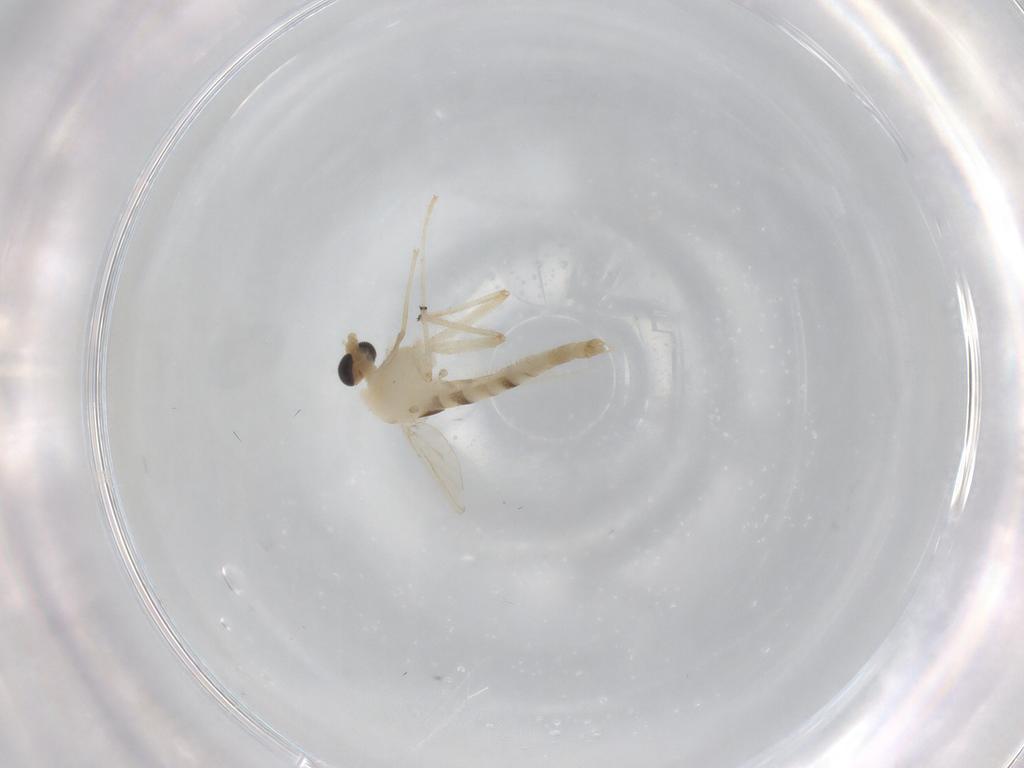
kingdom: Animalia
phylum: Arthropoda
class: Insecta
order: Diptera
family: Chironomidae
